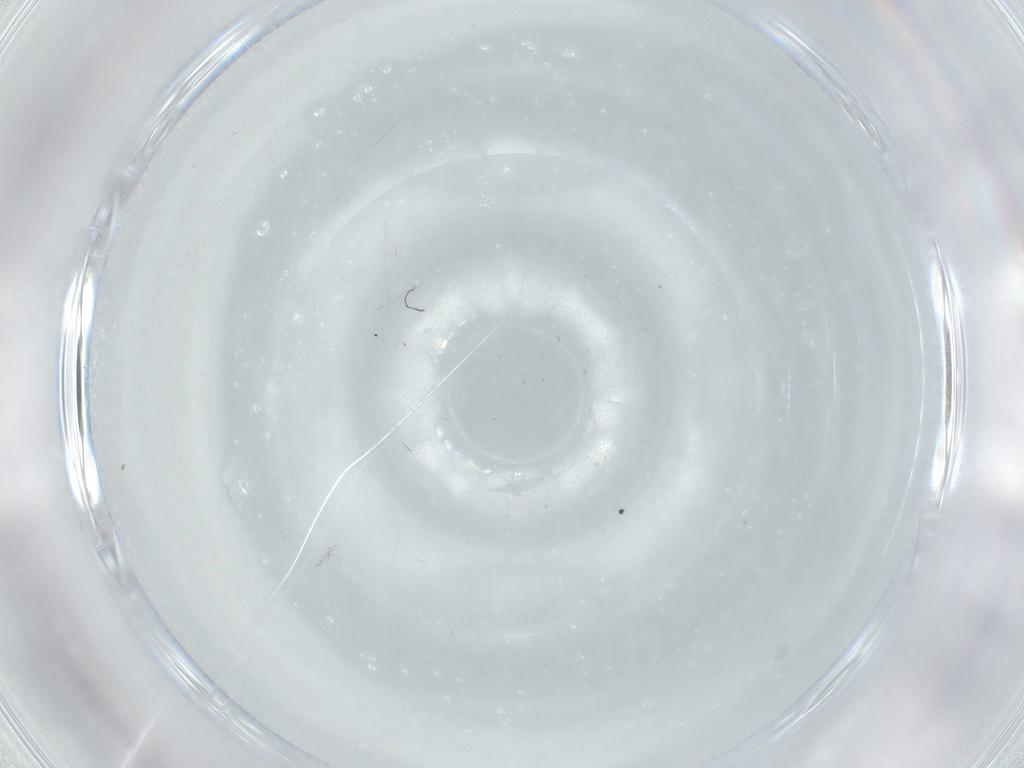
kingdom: Animalia
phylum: Arthropoda
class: Insecta
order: Diptera
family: Cecidomyiidae
